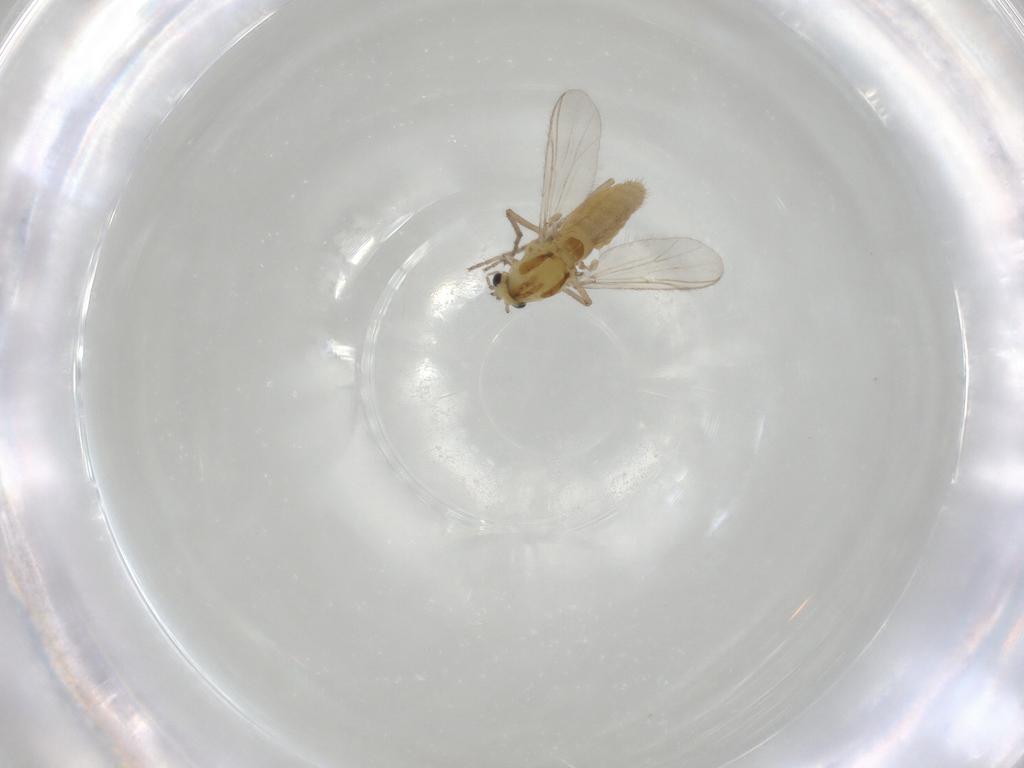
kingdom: Animalia
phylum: Arthropoda
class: Insecta
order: Diptera
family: Chironomidae
